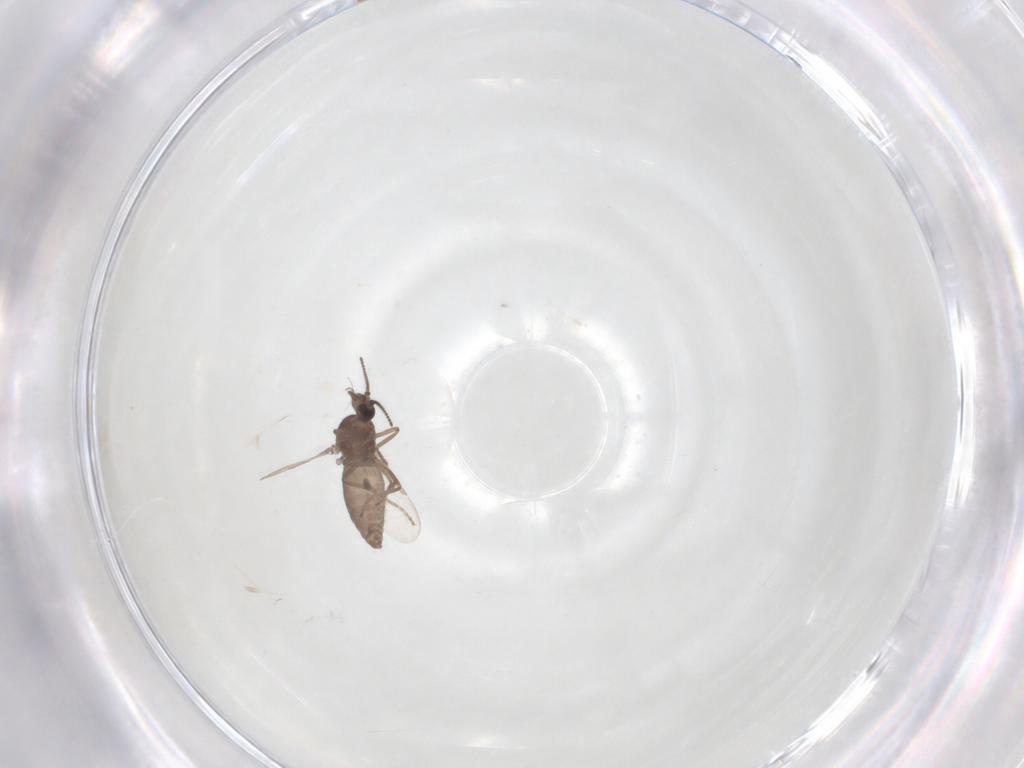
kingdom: Animalia
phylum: Arthropoda
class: Insecta
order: Diptera
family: Ceratopogonidae
